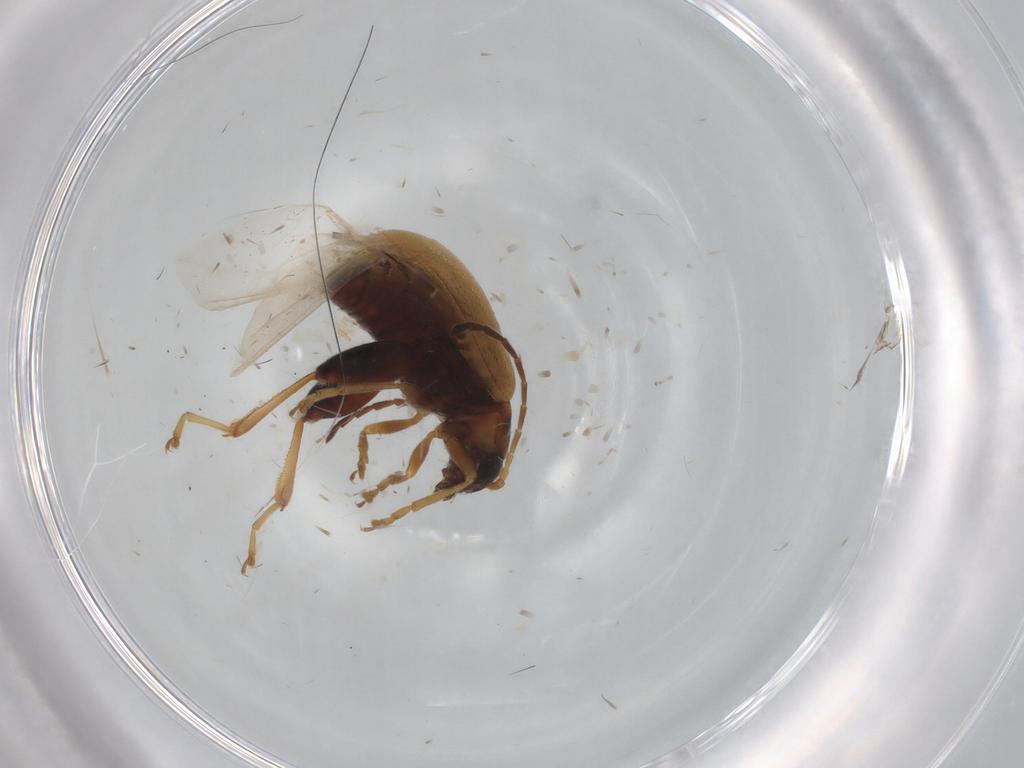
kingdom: Animalia
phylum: Arthropoda
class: Insecta
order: Coleoptera
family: Chrysomelidae
